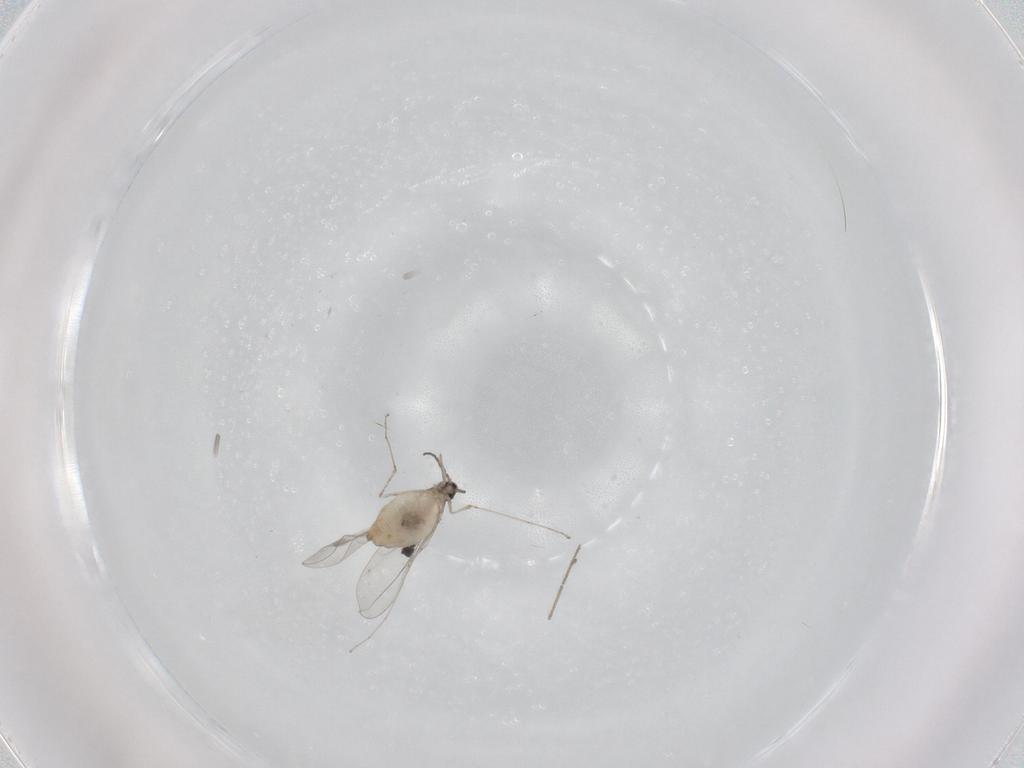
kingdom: Animalia
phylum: Arthropoda
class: Insecta
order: Diptera
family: Cecidomyiidae
